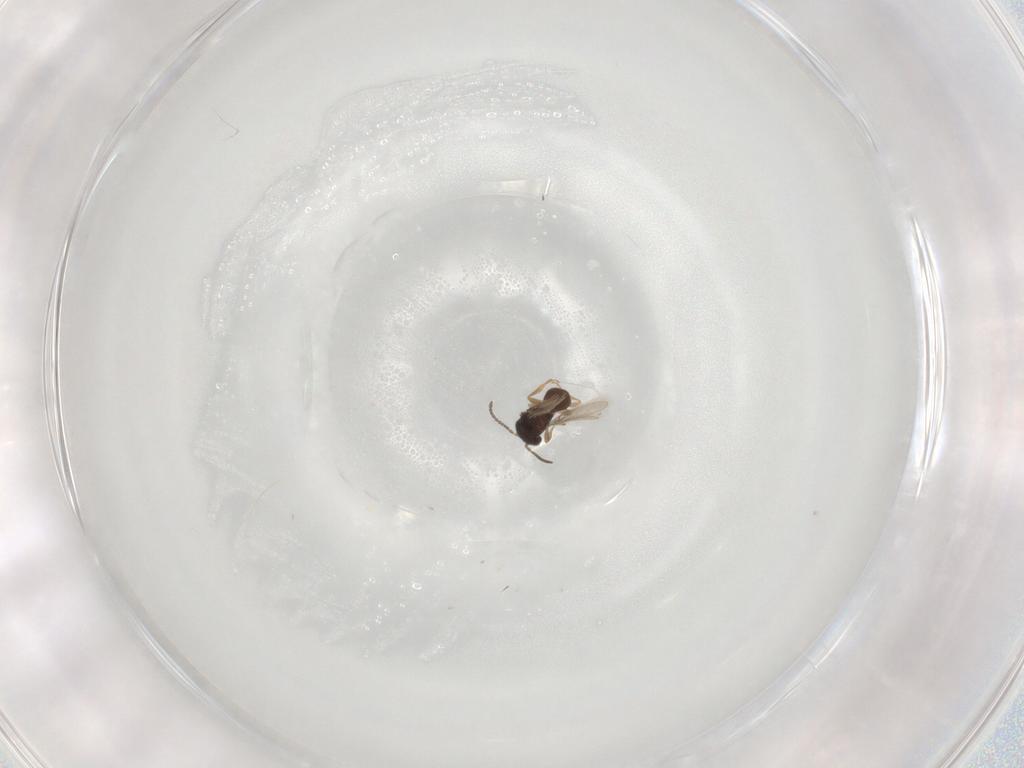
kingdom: Animalia
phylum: Arthropoda
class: Insecta
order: Hymenoptera
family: Scelionidae
